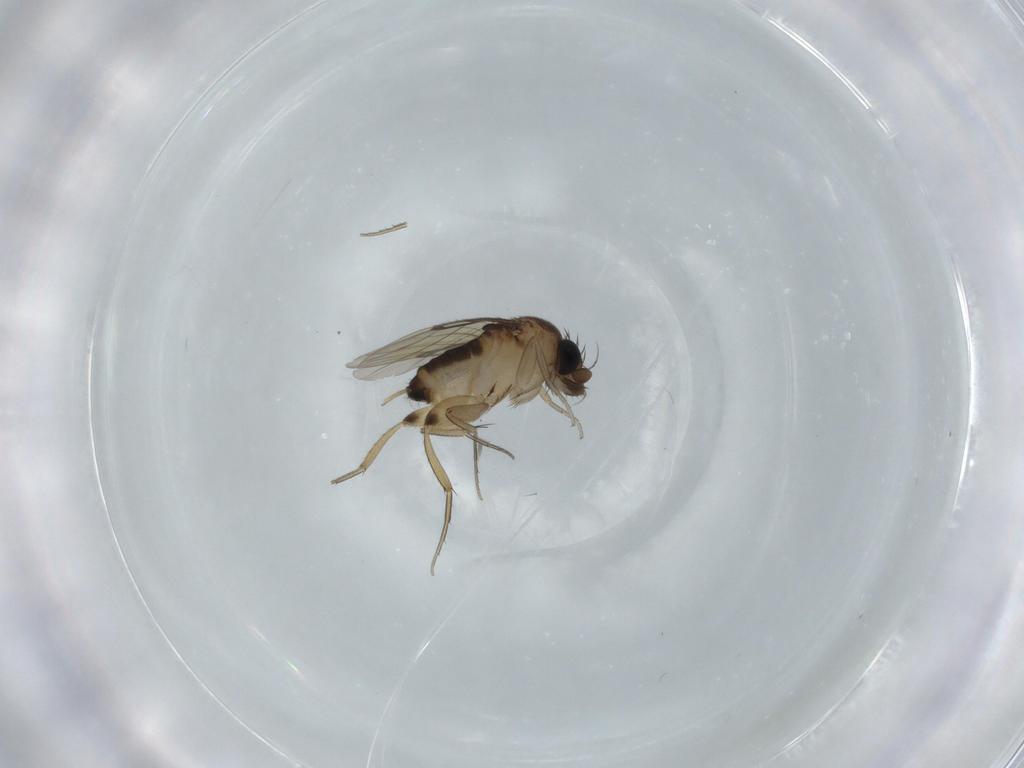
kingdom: Animalia
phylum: Arthropoda
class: Insecta
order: Diptera
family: Phoridae
